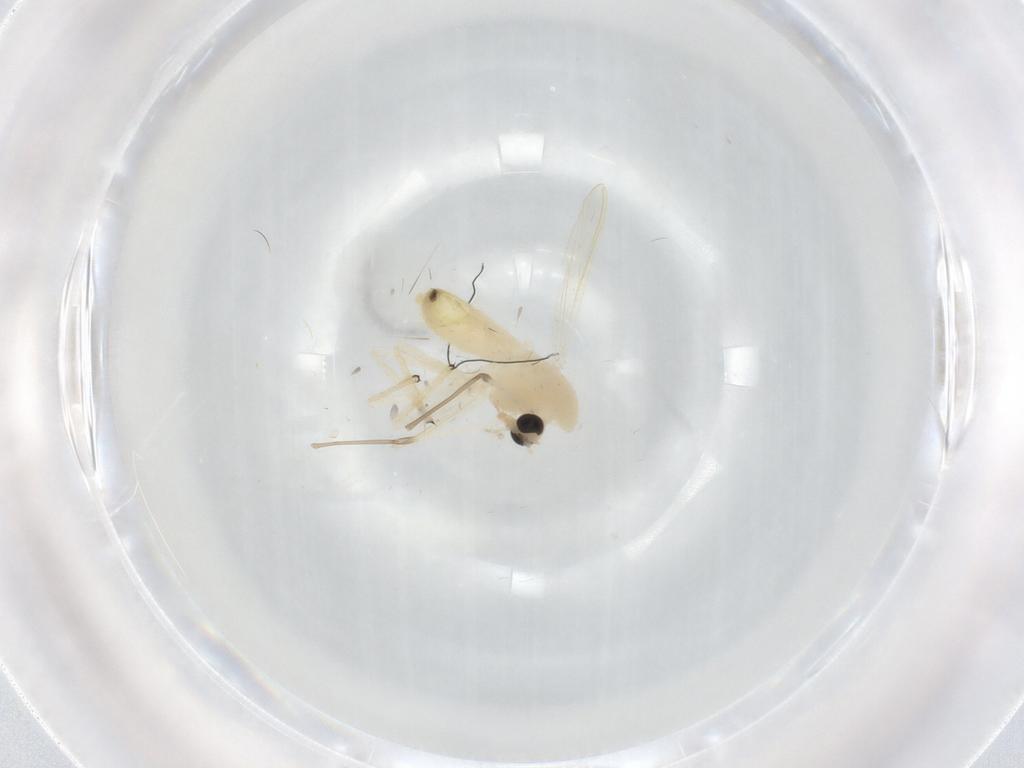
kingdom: Animalia
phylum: Arthropoda
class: Insecta
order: Diptera
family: Chironomidae
